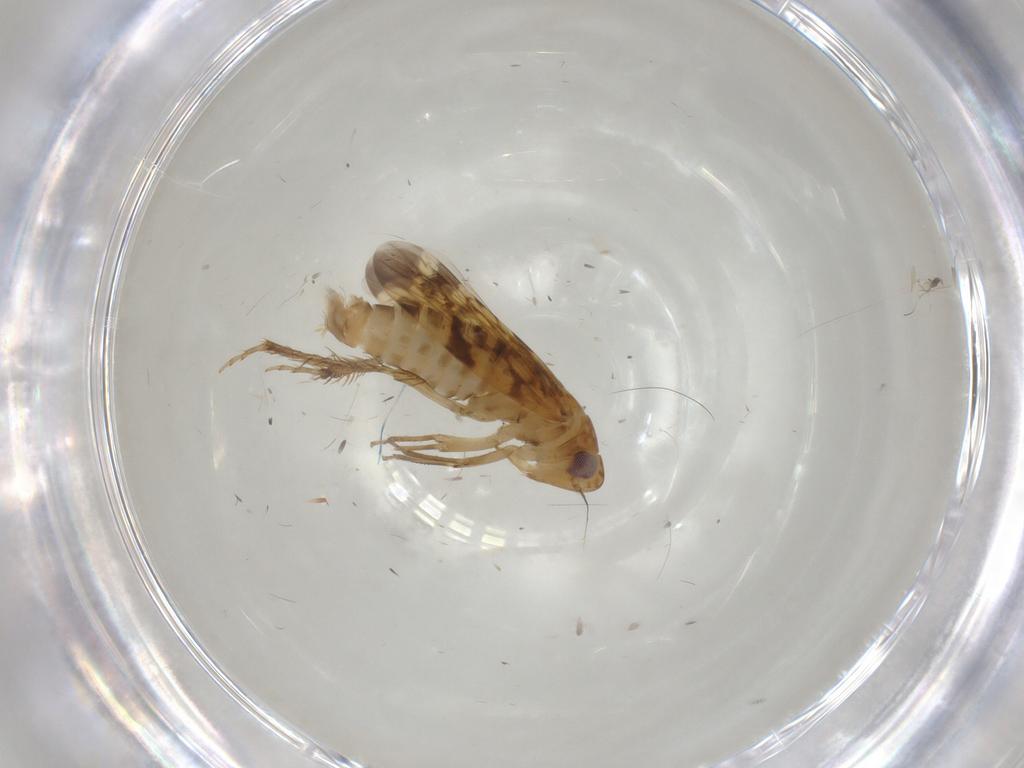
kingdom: Animalia
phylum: Arthropoda
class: Insecta
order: Hemiptera
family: Cicadellidae
